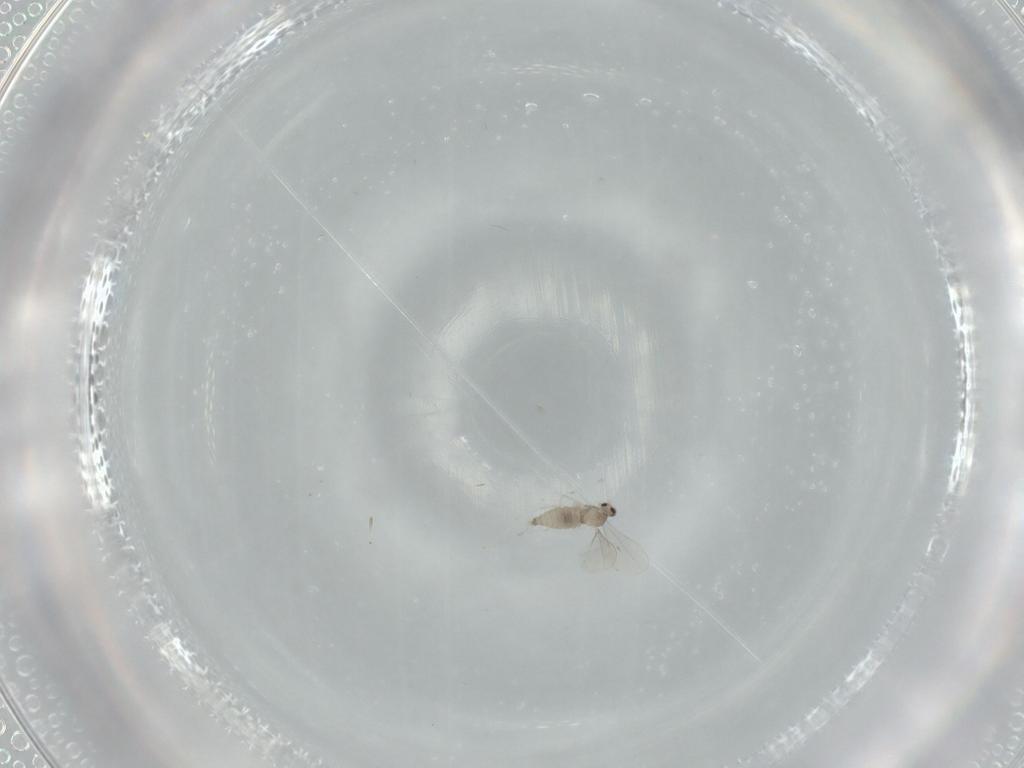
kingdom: Animalia
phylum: Arthropoda
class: Insecta
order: Diptera
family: Cecidomyiidae
